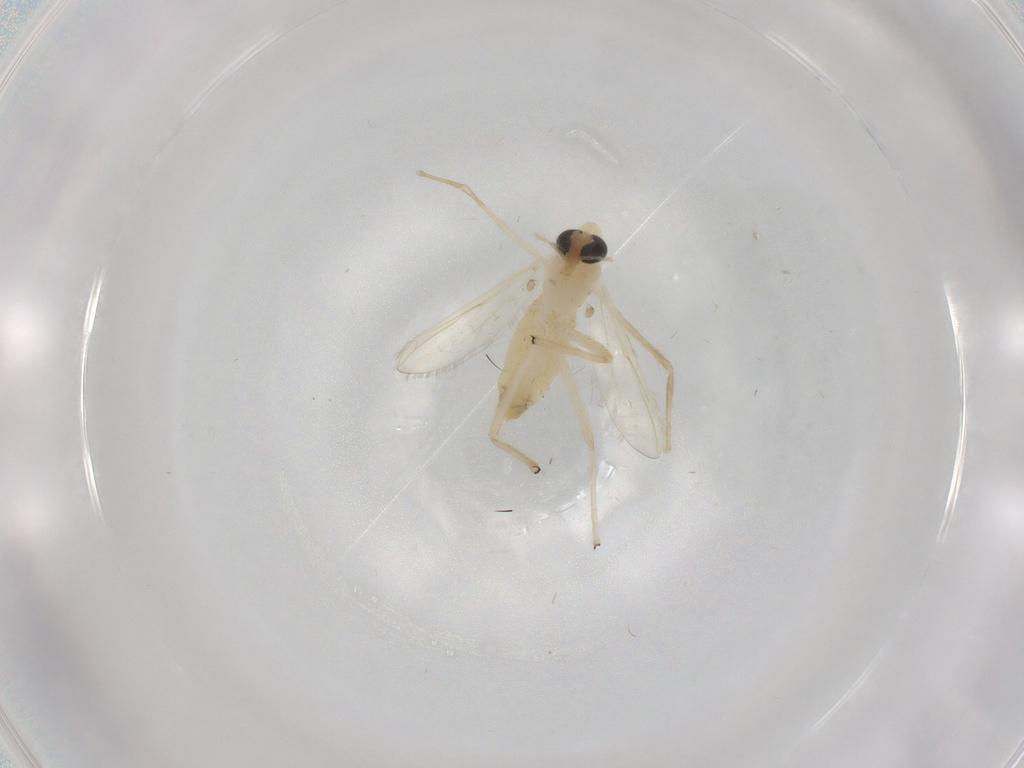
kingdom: Animalia
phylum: Arthropoda
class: Insecta
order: Diptera
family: Chironomidae
